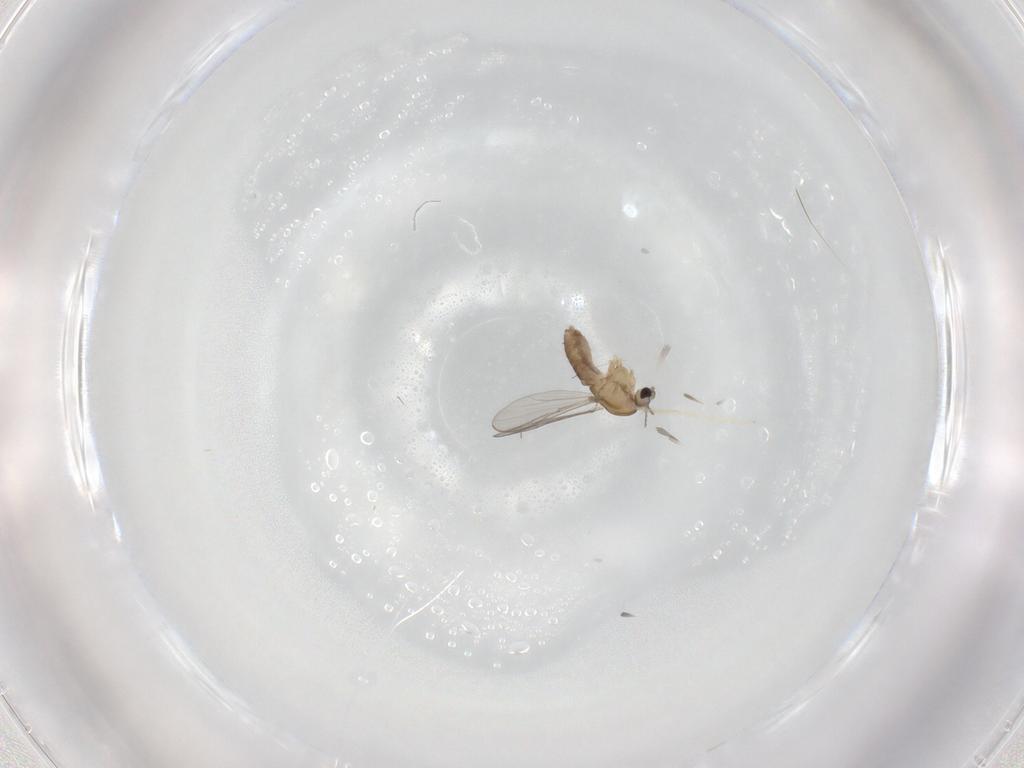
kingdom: Animalia
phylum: Arthropoda
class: Insecta
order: Diptera
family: Chironomidae
